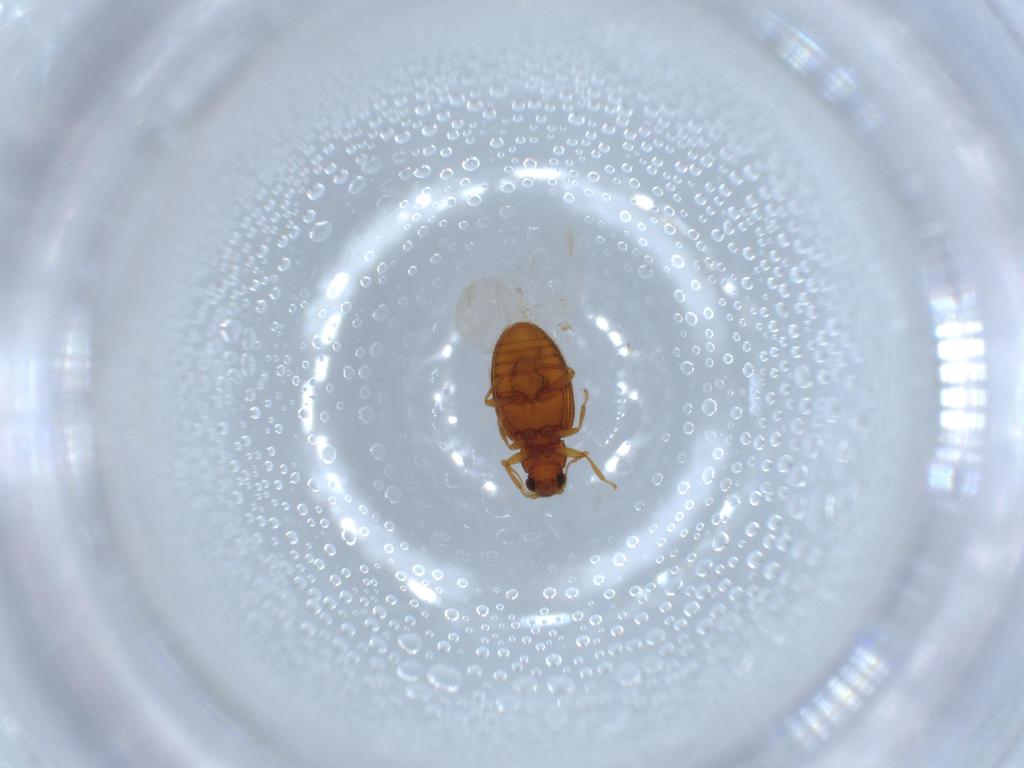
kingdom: Animalia
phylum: Arthropoda
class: Insecta
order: Coleoptera
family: Latridiidae
